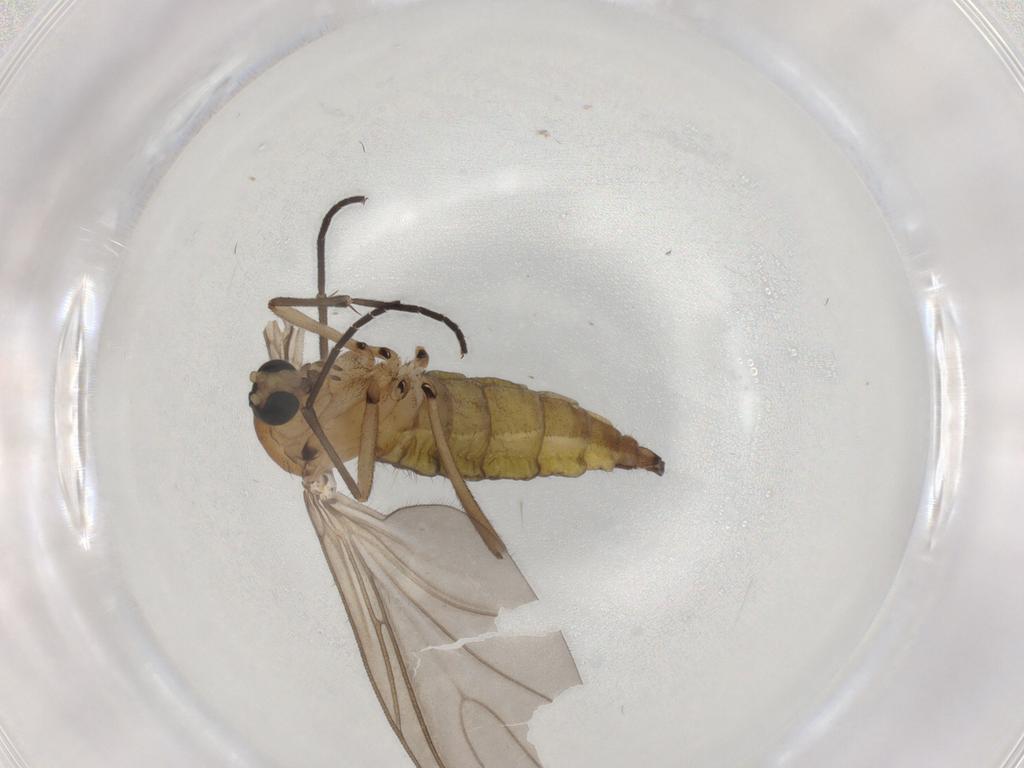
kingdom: Animalia
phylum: Arthropoda
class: Insecta
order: Diptera
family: Sciaridae
